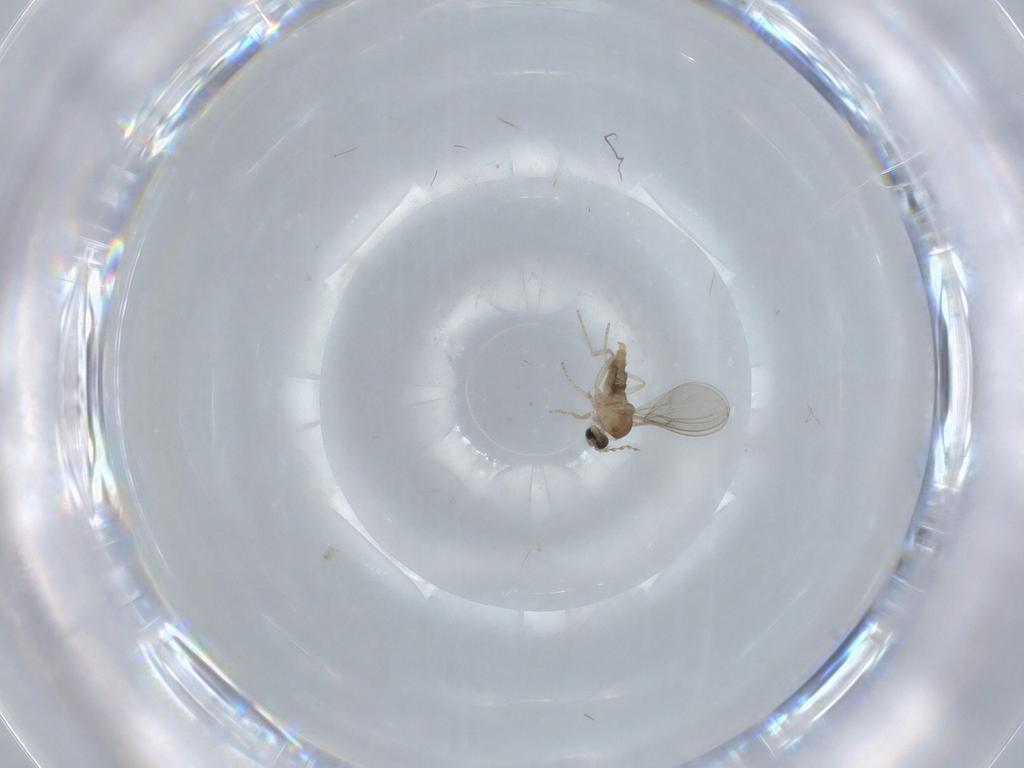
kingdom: Animalia
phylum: Arthropoda
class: Insecta
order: Diptera
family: Cecidomyiidae
